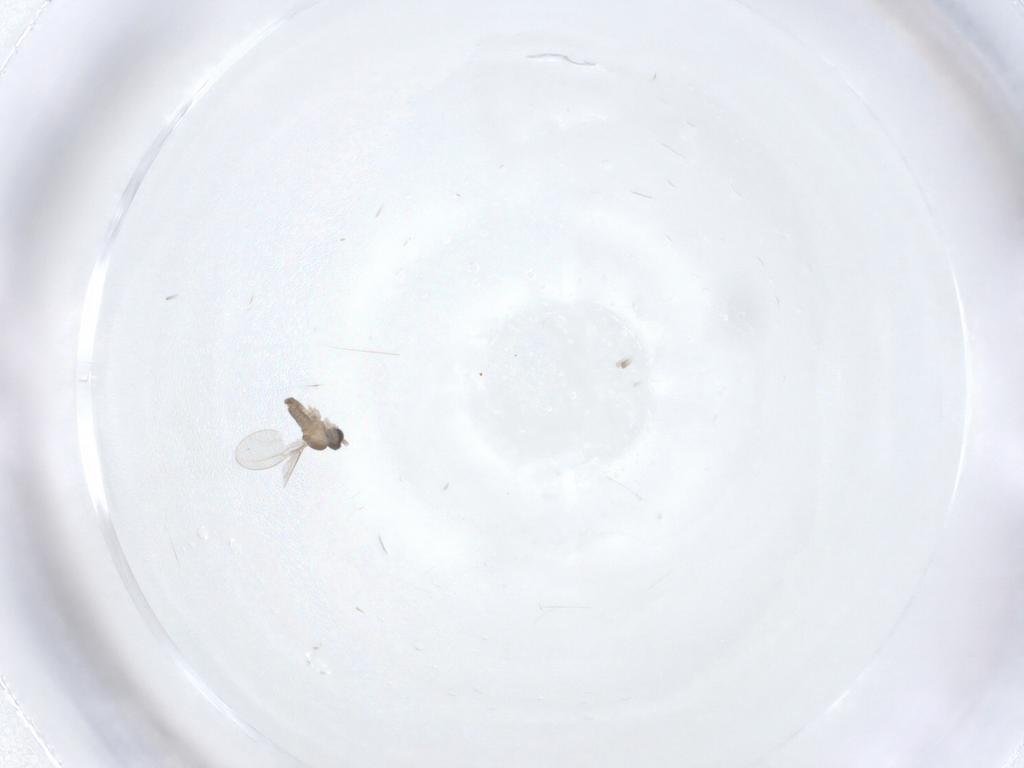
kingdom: Animalia
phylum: Arthropoda
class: Insecta
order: Diptera
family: Cecidomyiidae
